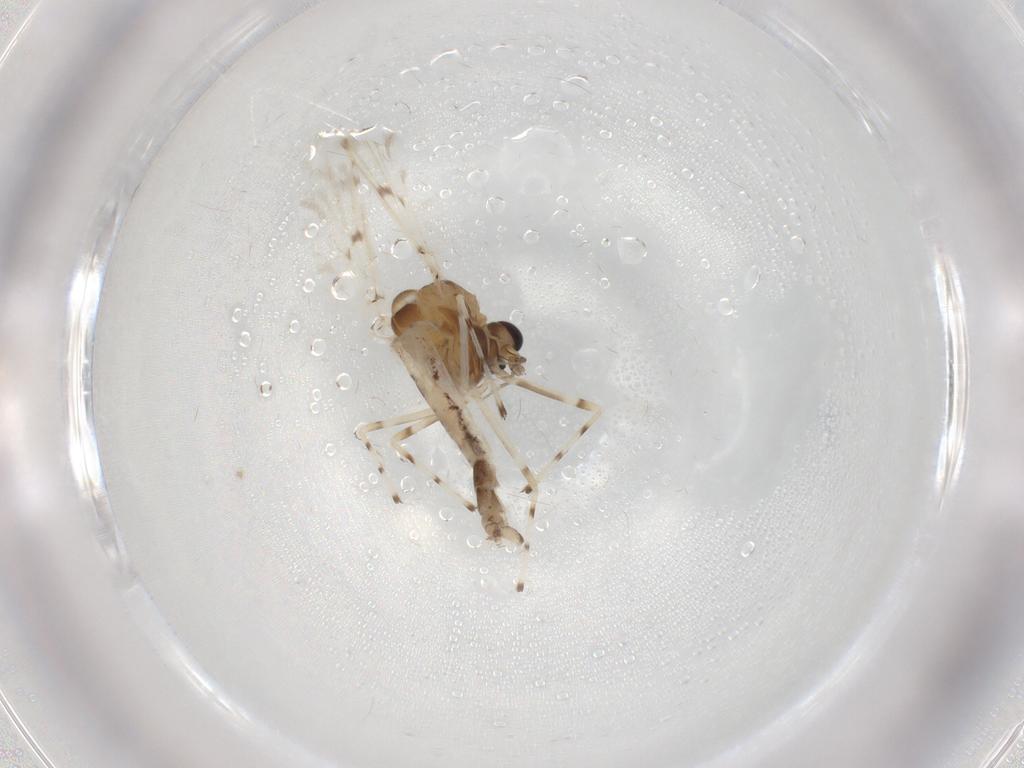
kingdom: Animalia
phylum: Arthropoda
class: Insecta
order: Diptera
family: Chironomidae
